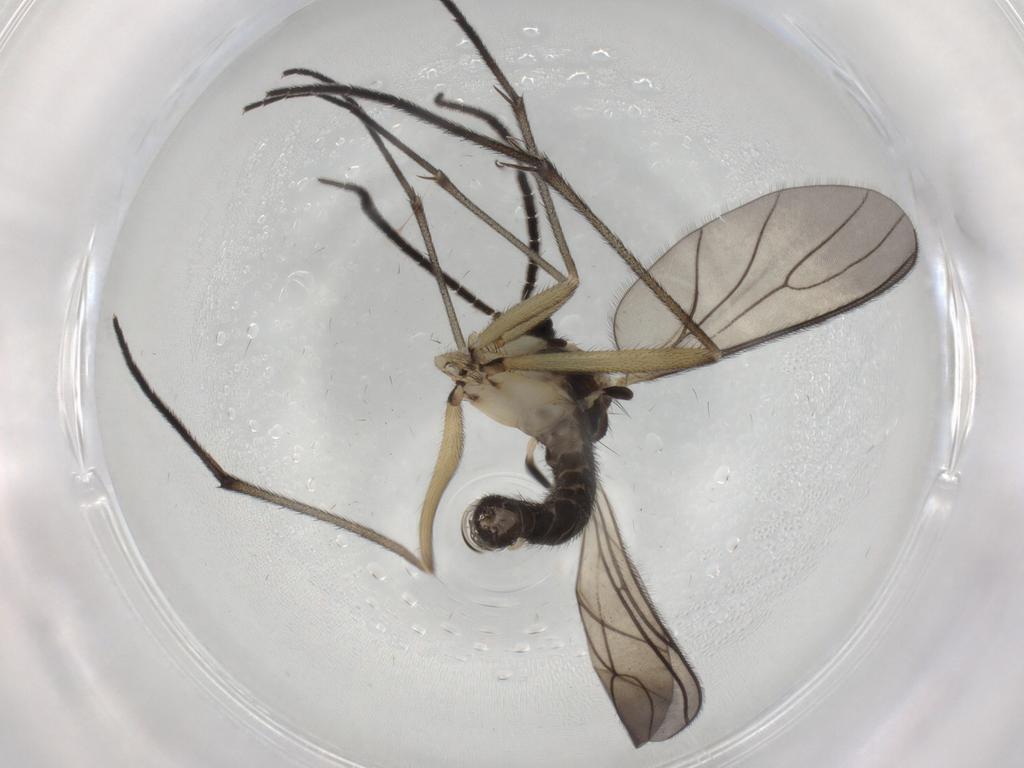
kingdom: Animalia
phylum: Arthropoda
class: Insecta
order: Diptera
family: Sciaridae
